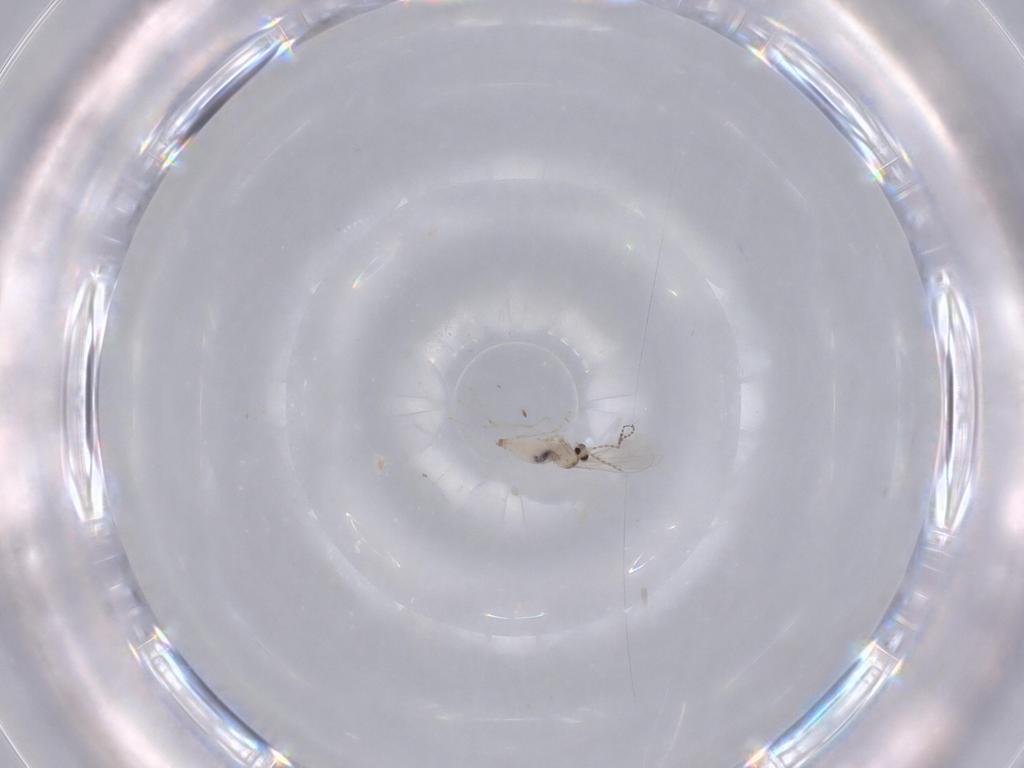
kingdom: Animalia
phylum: Arthropoda
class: Insecta
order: Diptera
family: Cecidomyiidae
